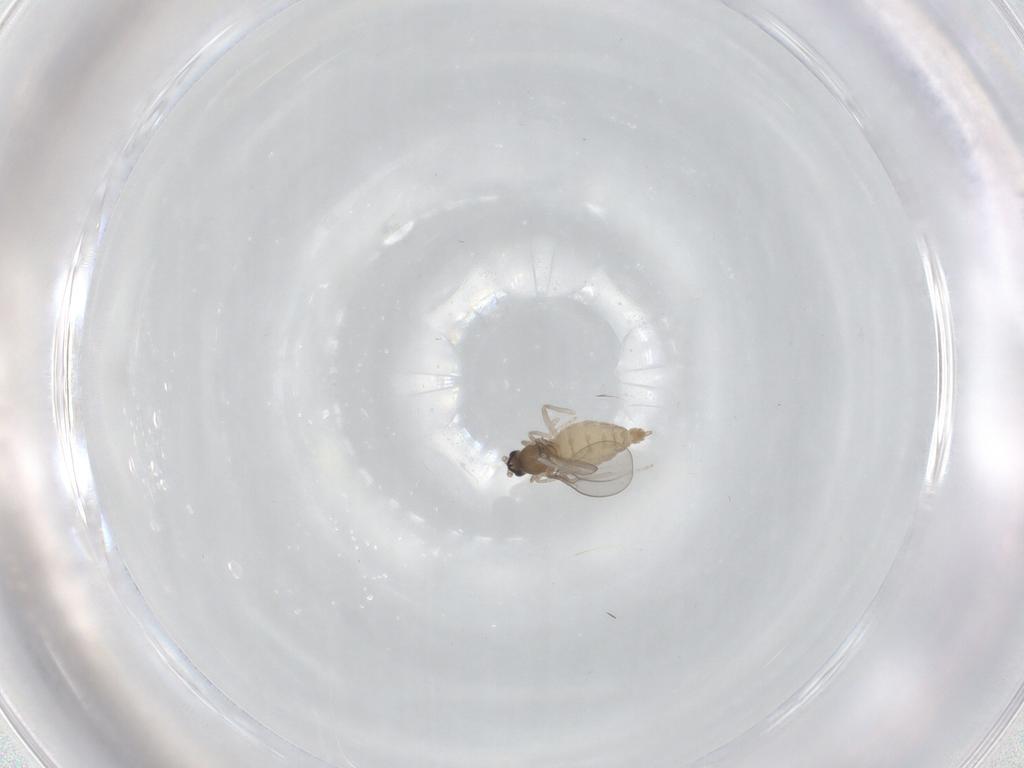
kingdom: Animalia
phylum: Arthropoda
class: Insecta
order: Diptera
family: Cecidomyiidae
